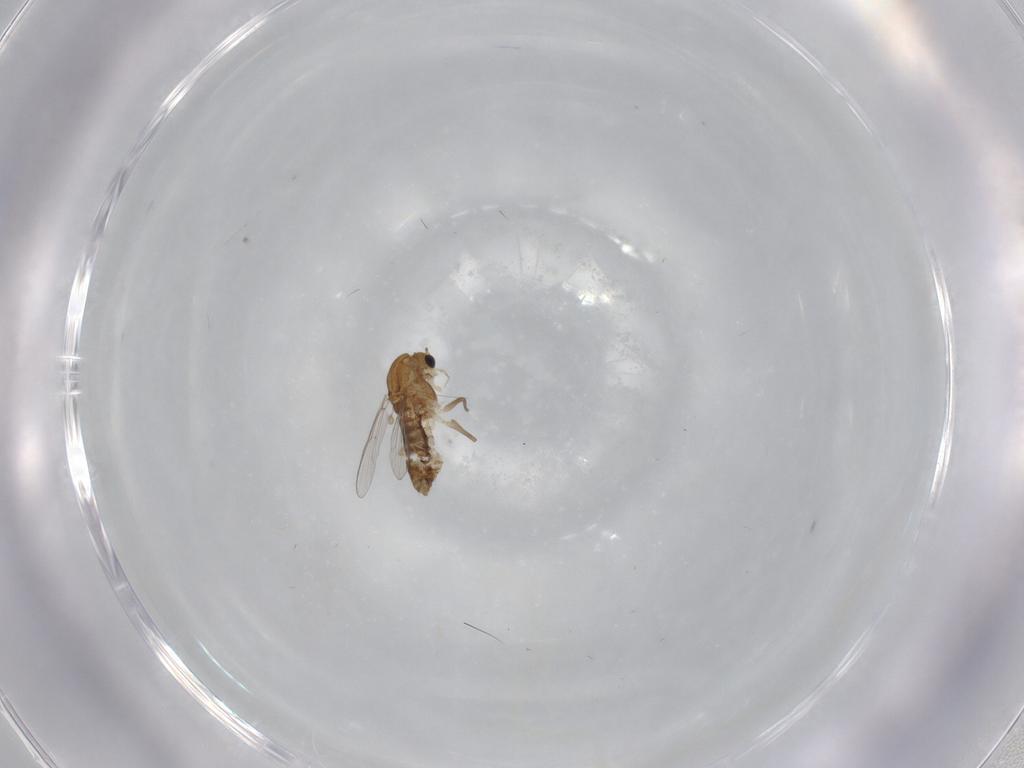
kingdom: Animalia
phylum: Arthropoda
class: Insecta
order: Diptera
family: Chironomidae
